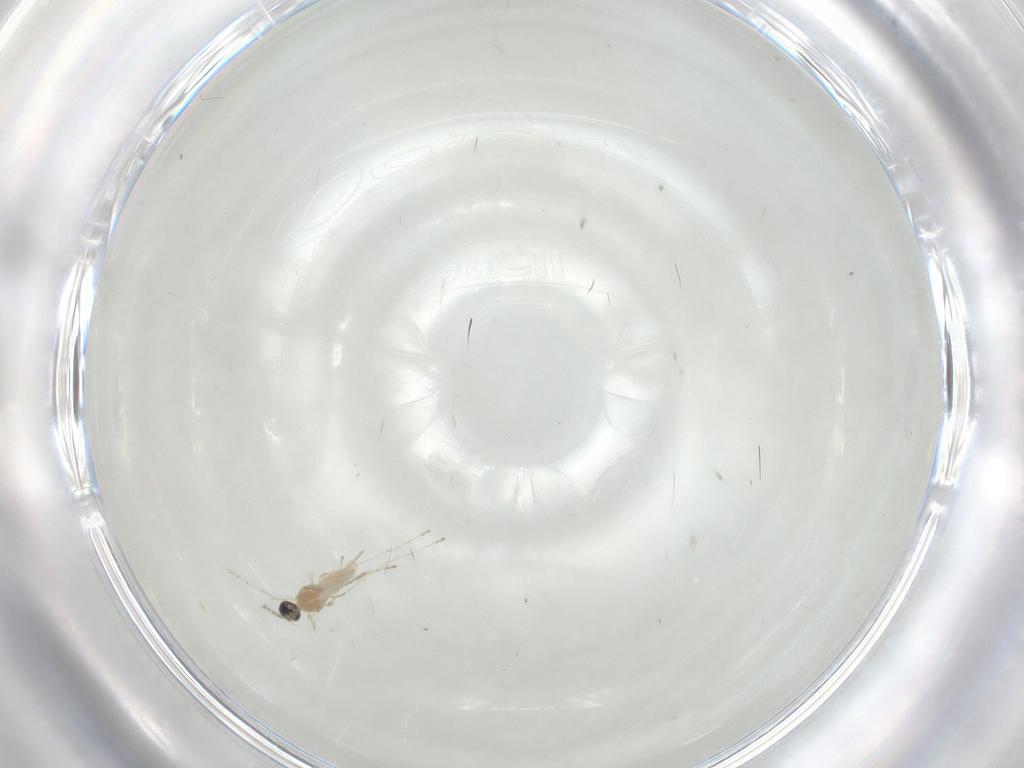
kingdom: Animalia
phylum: Arthropoda
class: Insecta
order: Diptera
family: Cecidomyiidae
